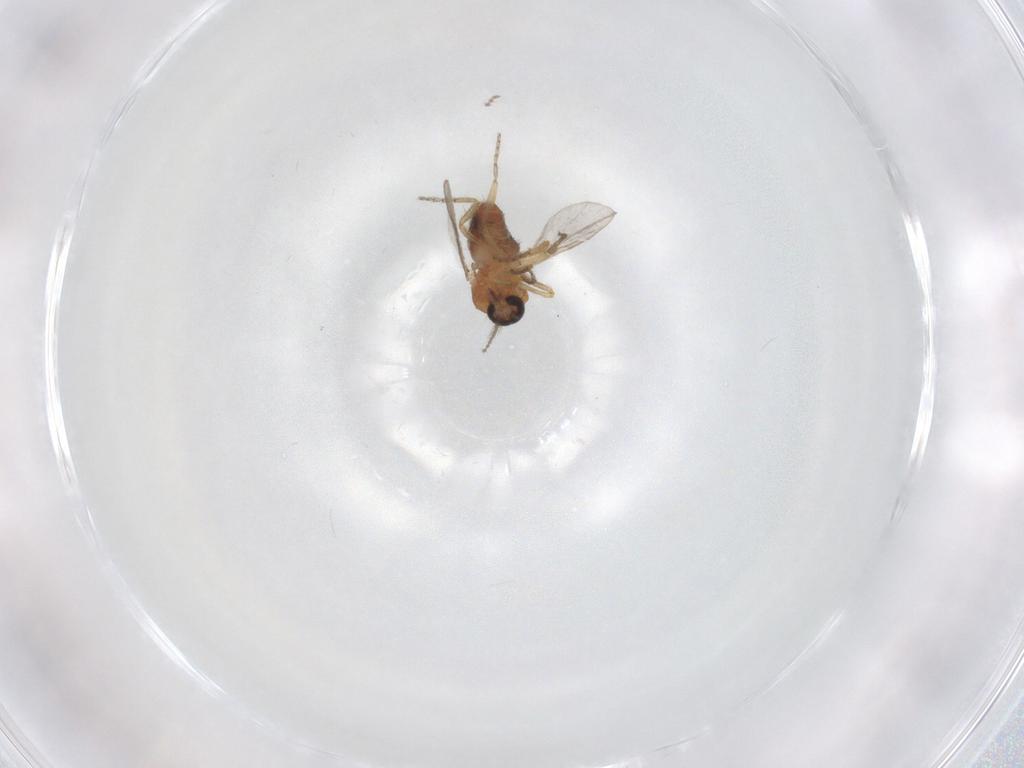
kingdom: Animalia
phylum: Arthropoda
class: Insecta
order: Diptera
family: Ceratopogonidae
